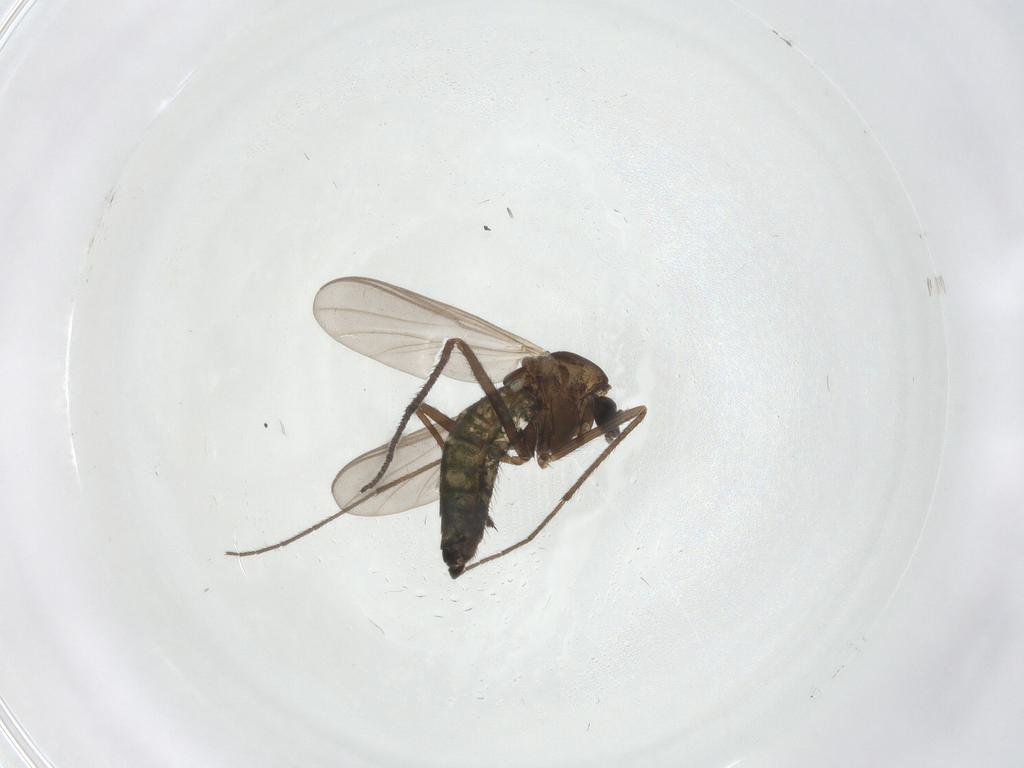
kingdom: Animalia
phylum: Arthropoda
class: Insecta
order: Diptera
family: Chironomidae
